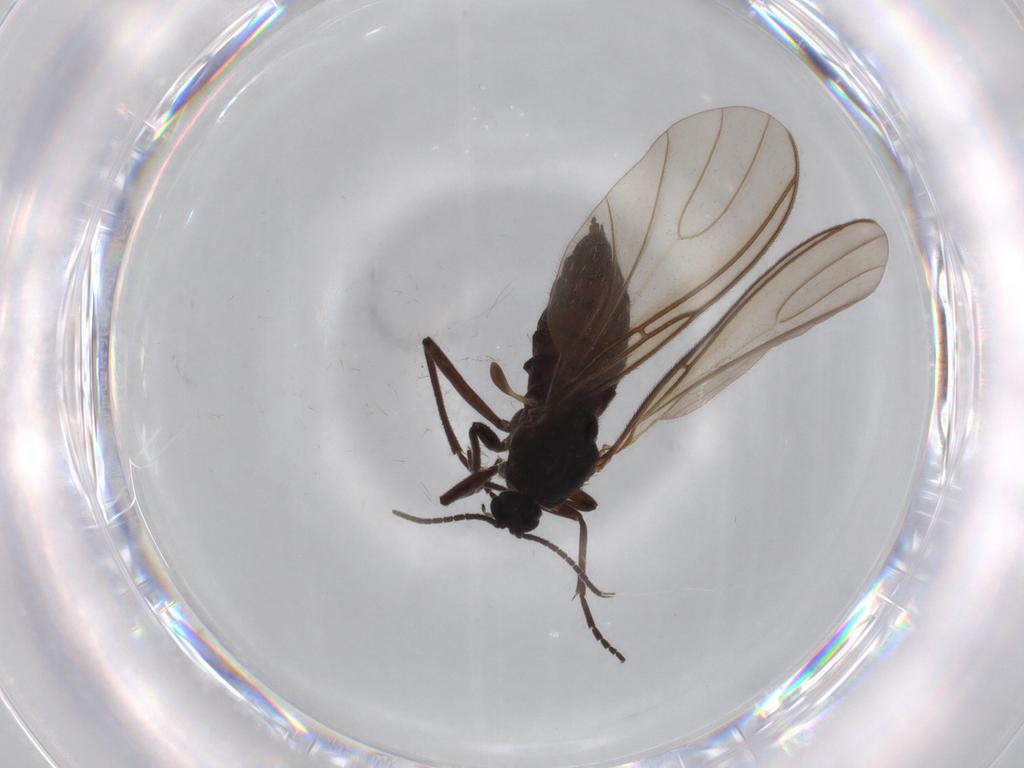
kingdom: Animalia
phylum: Arthropoda
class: Insecta
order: Diptera
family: Sciaridae
